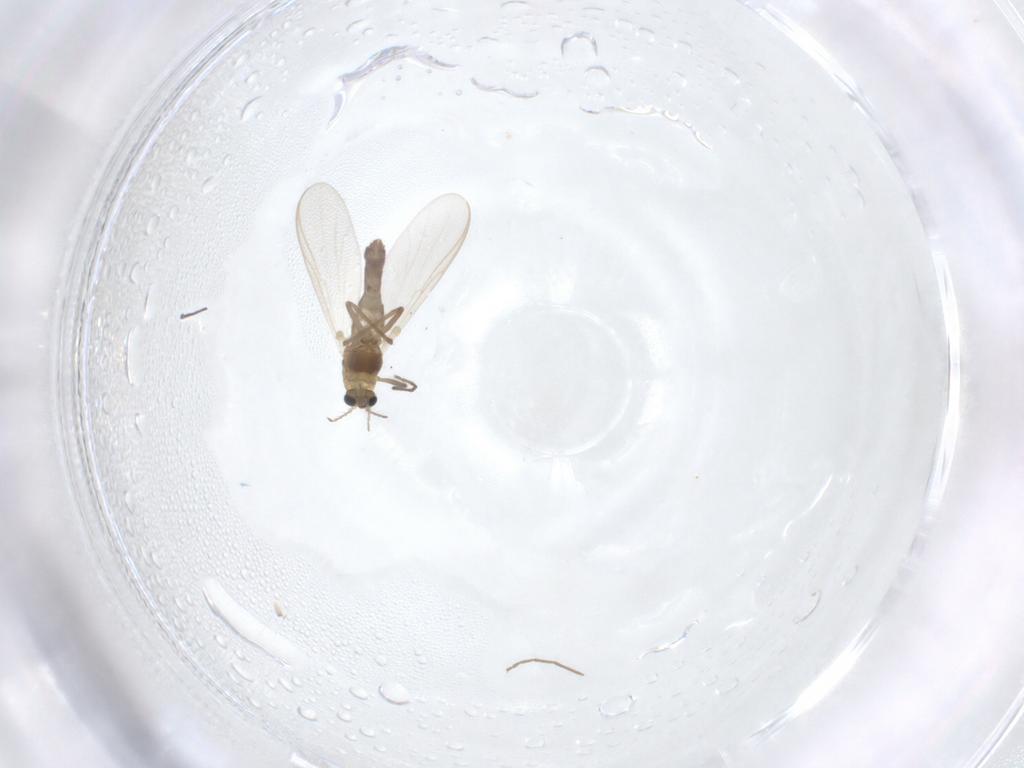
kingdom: Animalia
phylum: Arthropoda
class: Insecta
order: Diptera
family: Chironomidae
